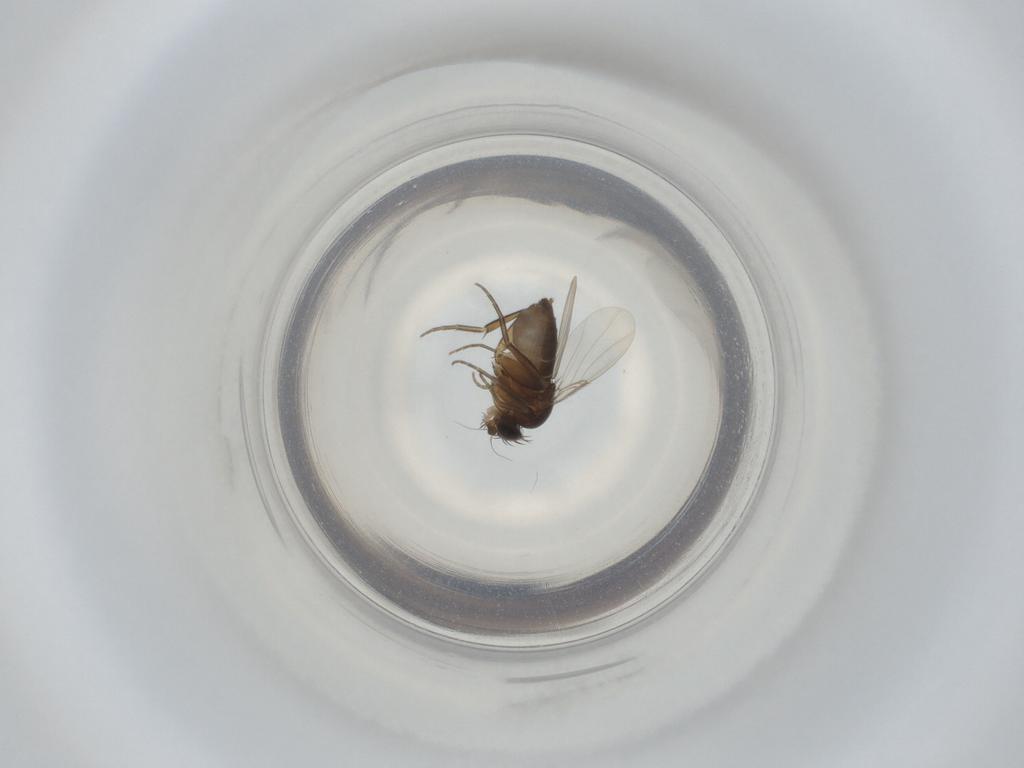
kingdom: Animalia
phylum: Arthropoda
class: Insecta
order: Diptera
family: Phoridae
